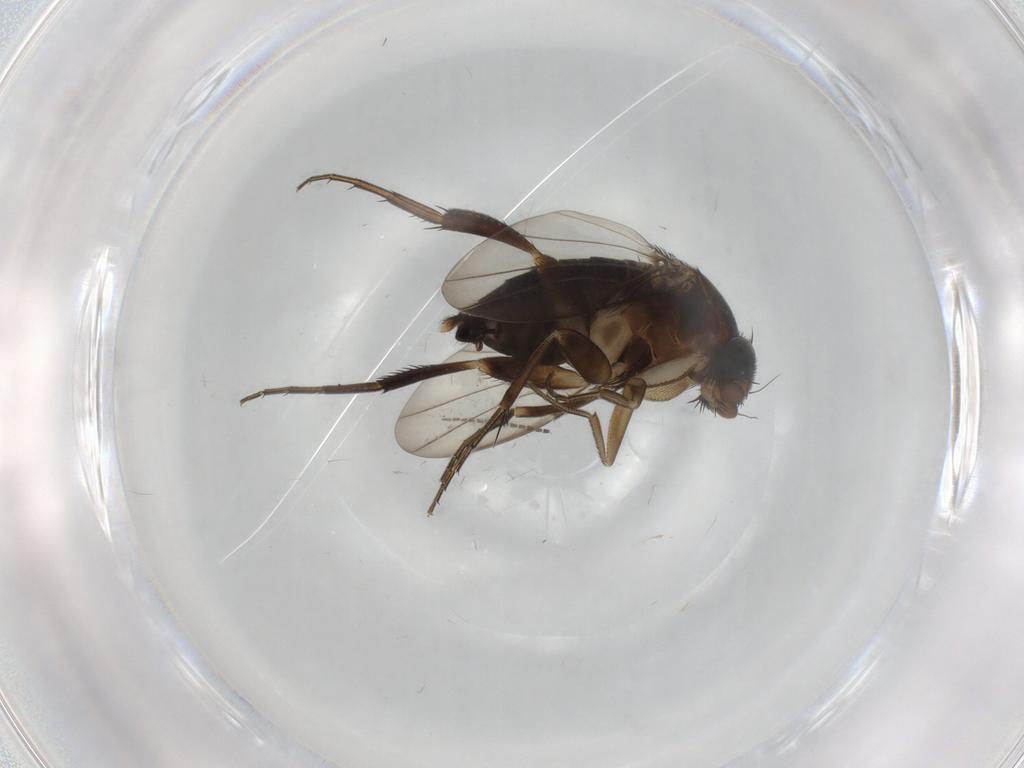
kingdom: Animalia
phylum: Arthropoda
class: Insecta
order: Diptera
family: Phoridae
